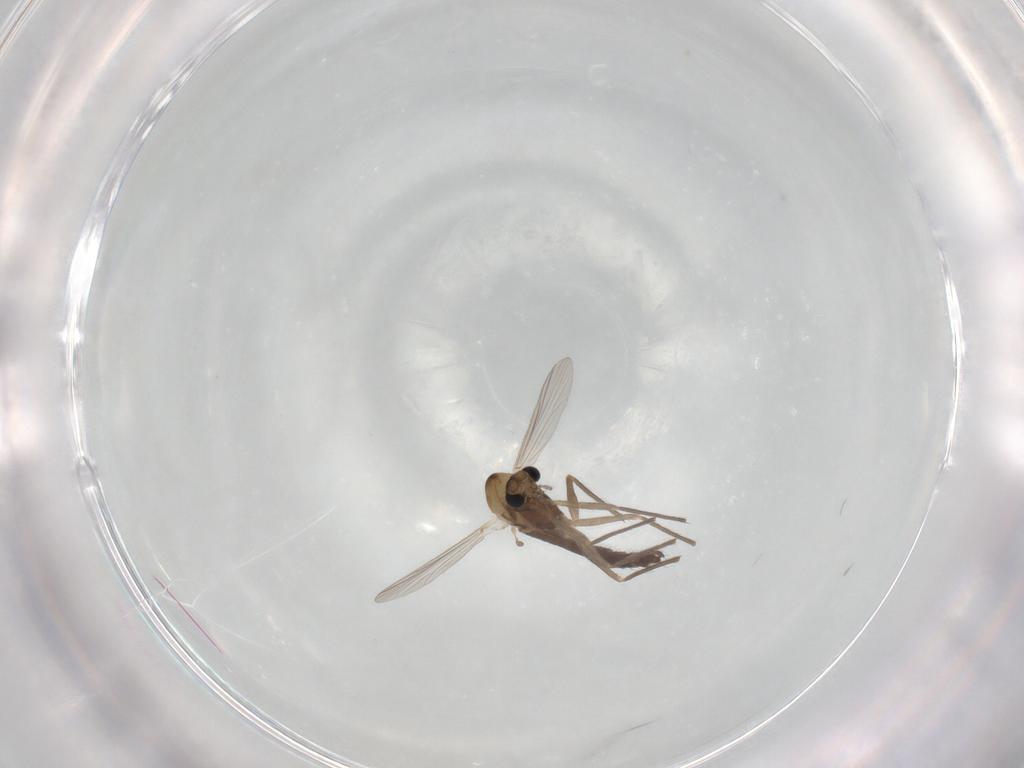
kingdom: Animalia
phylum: Arthropoda
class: Insecta
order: Diptera
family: Chironomidae
